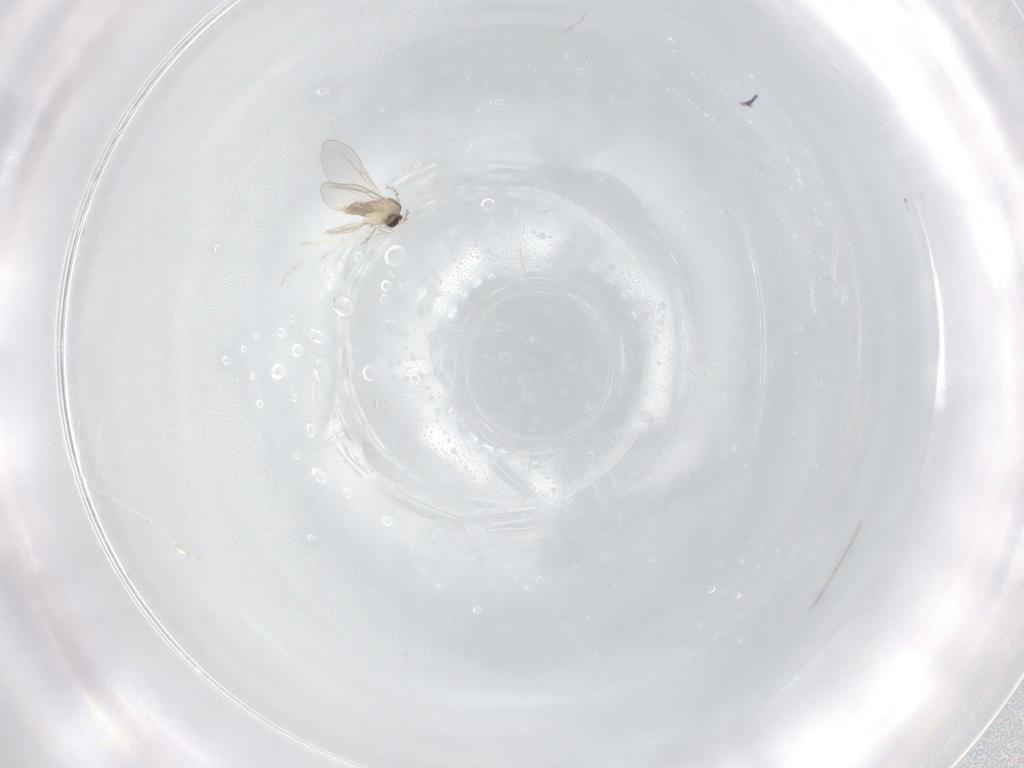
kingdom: Animalia
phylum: Arthropoda
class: Insecta
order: Diptera
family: Cecidomyiidae
